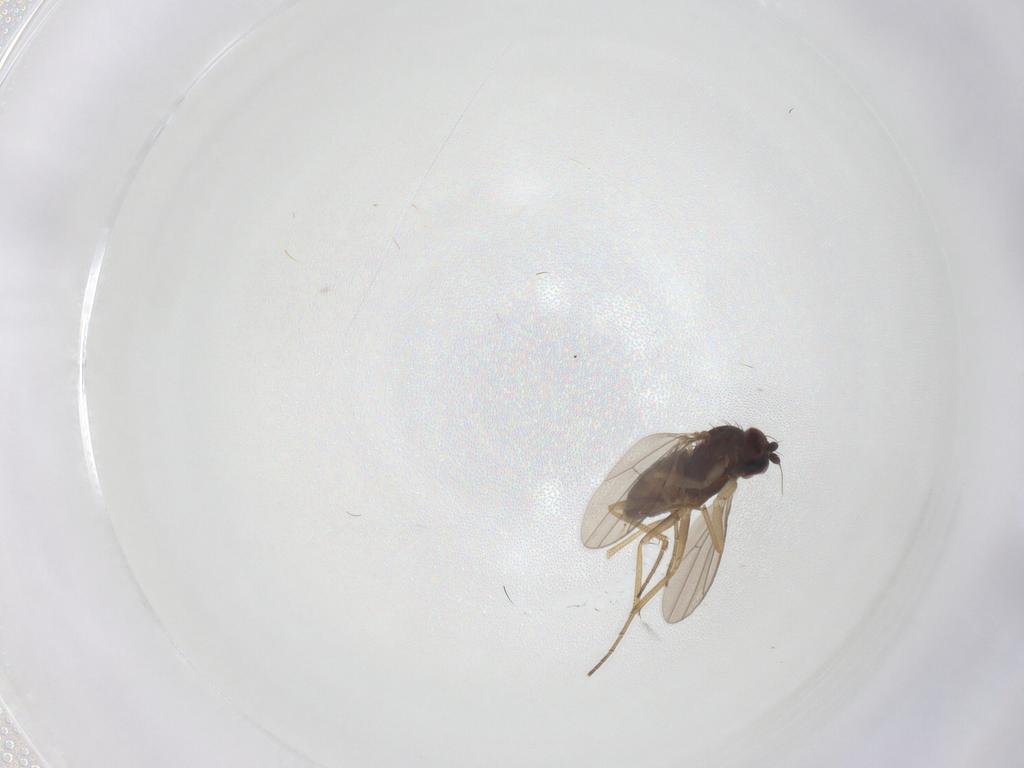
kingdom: Animalia
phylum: Arthropoda
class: Insecta
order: Diptera
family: Dolichopodidae
